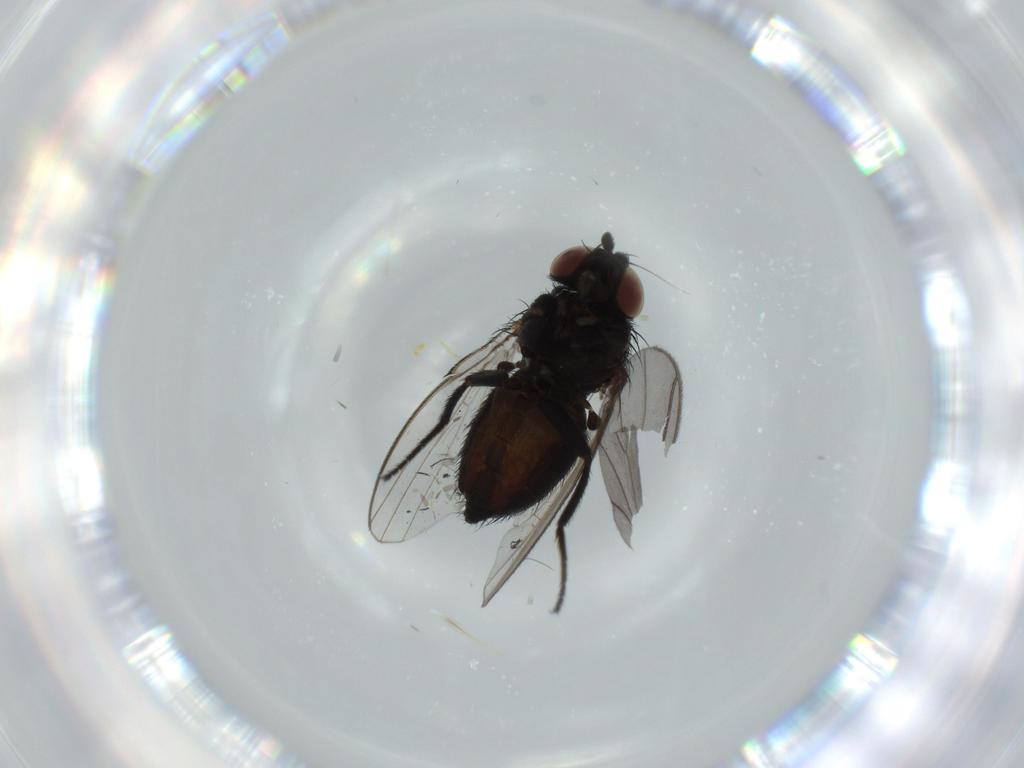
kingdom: Animalia
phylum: Arthropoda
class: Insecta
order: Diptera
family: Milichiidae
